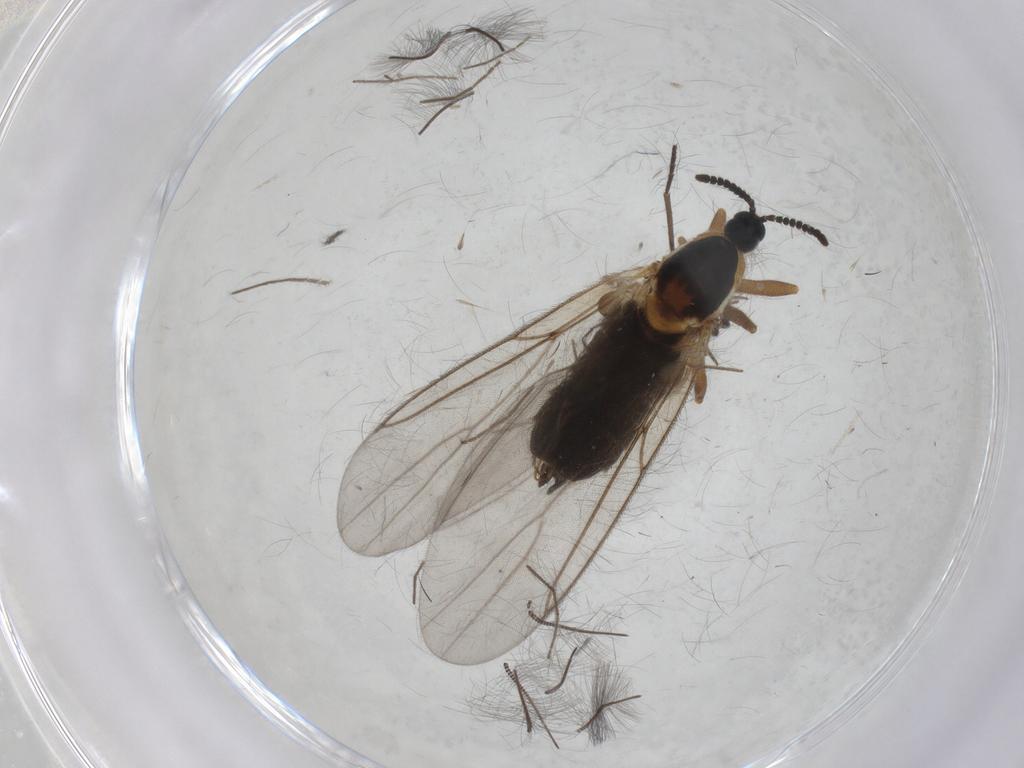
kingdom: Animalia
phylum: Arthropoda
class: Insecta
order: Diptera
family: Scatopsidae
